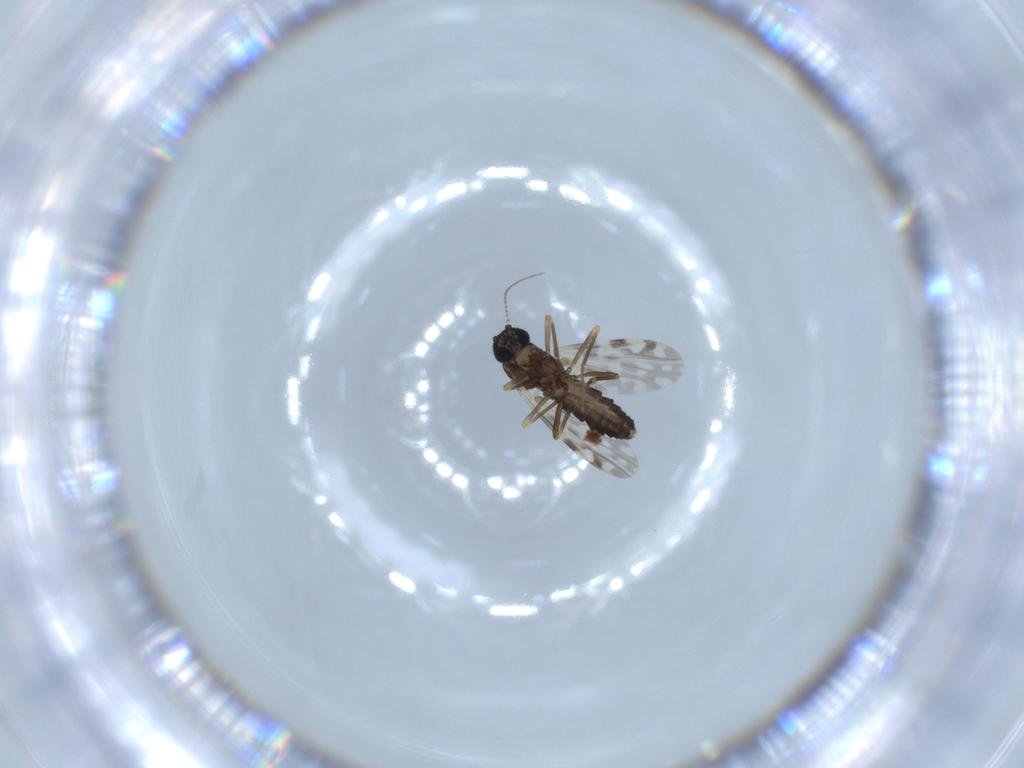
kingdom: Animalia
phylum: Arthropoda
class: Insecta
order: Diptera
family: Ceratopogonidae
